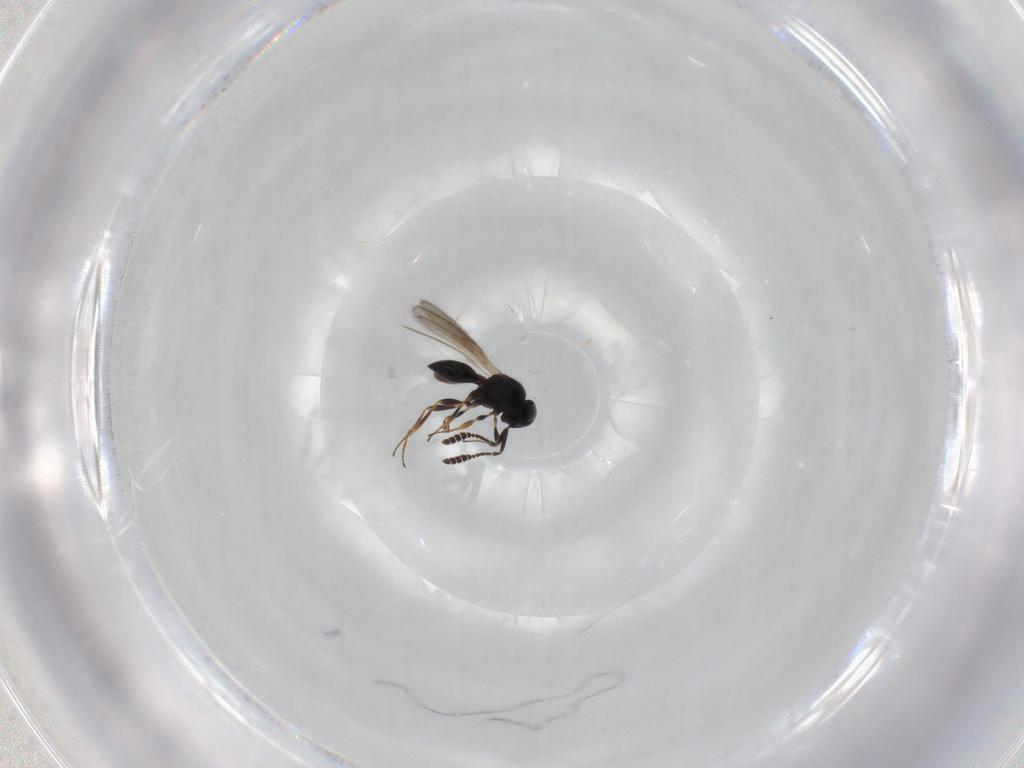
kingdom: Animalia
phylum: Arthropoda
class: Insecta
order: Hymenoptera
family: Scelionidae
